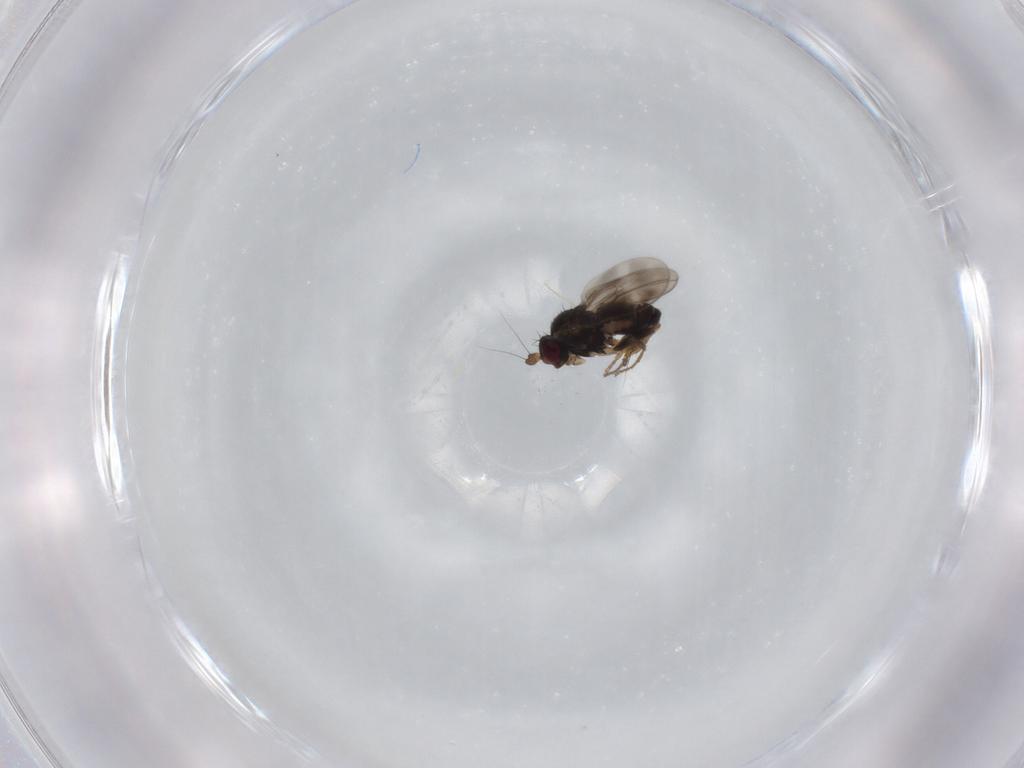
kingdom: Animalia
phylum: Arthropoda
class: Insecta
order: Diptera
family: Sphaeroceridae
